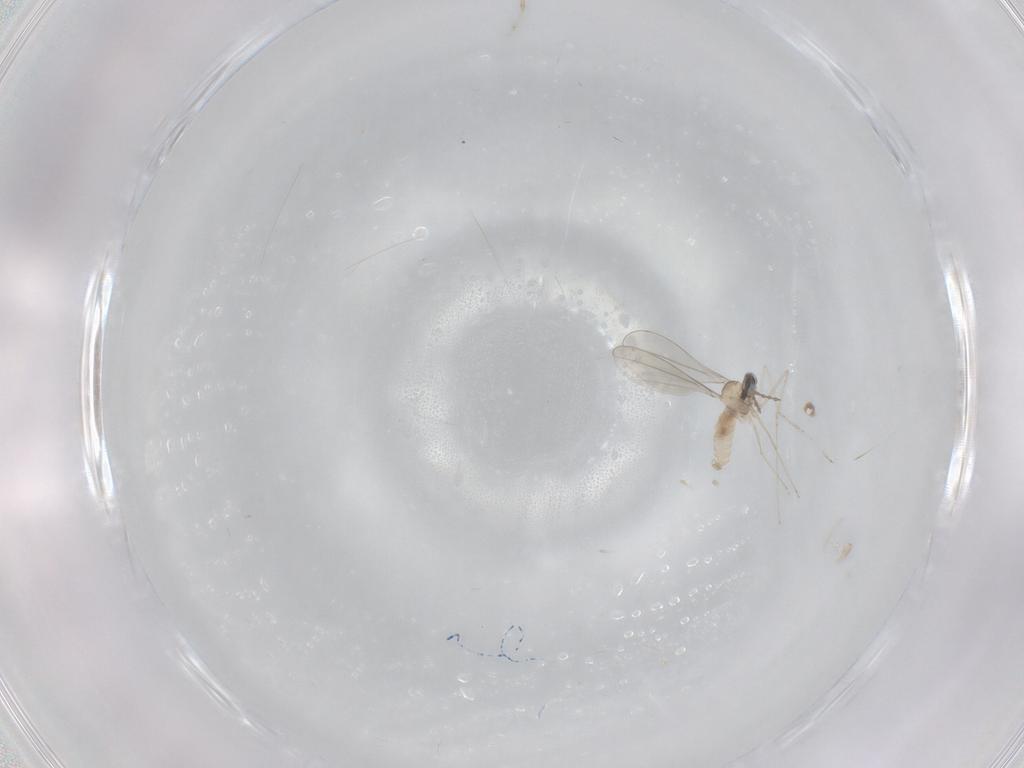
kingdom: Animalia
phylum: Arthropoda
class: Insecta
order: Diptera
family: Cecidomyiidae
